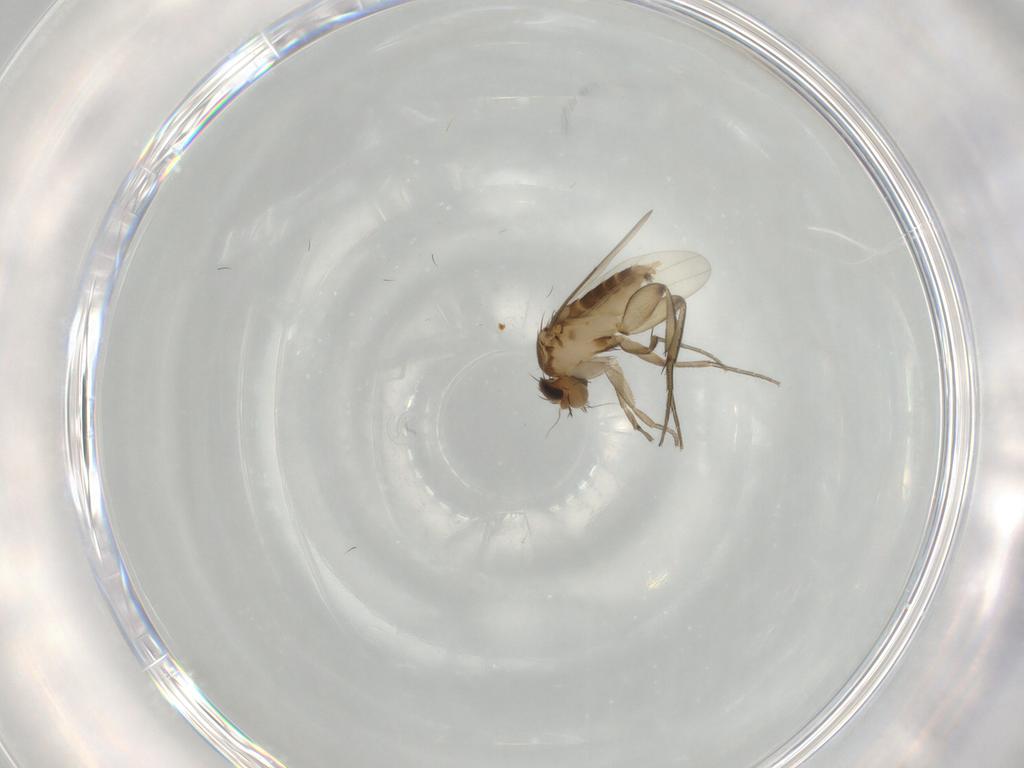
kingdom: Animalia
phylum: Arthropoda
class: Insecta
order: Diptera
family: Phoridae
